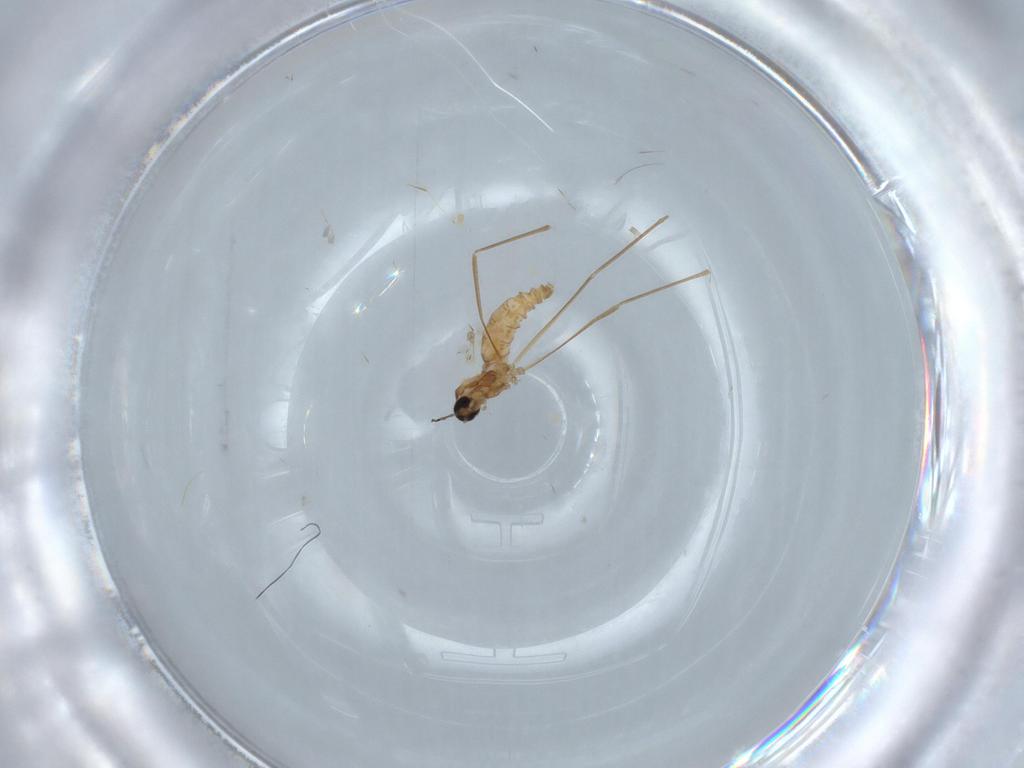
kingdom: Animalia
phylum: Arthropoda
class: Insecta
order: Diptera
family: Cecidomyiidae
